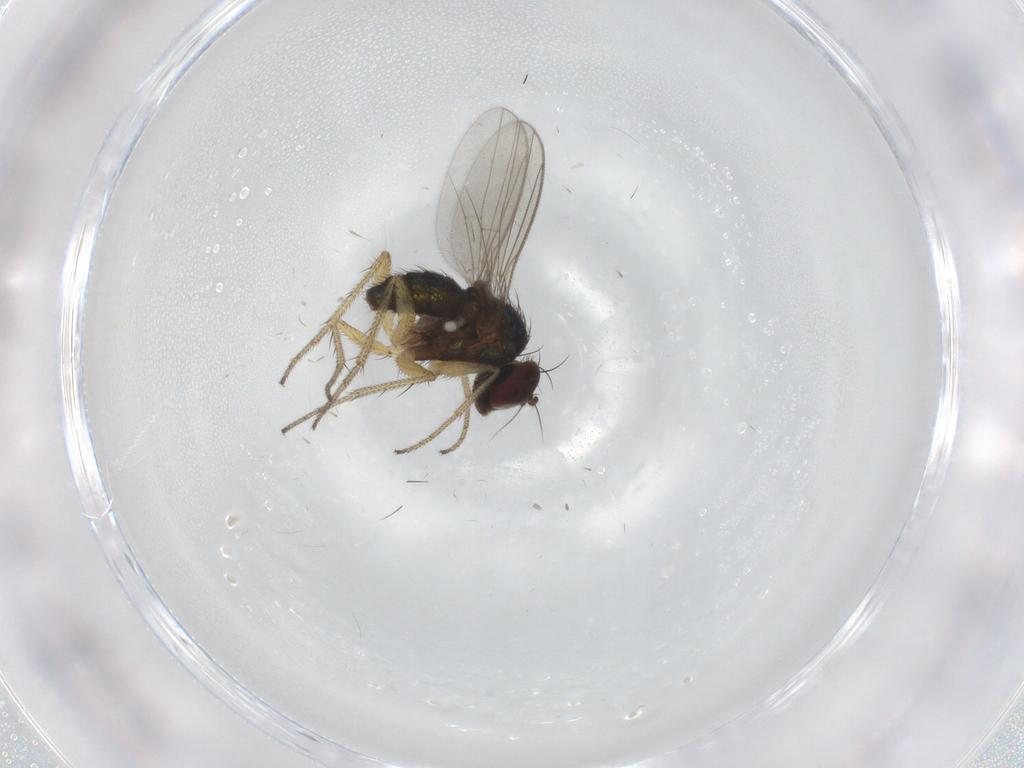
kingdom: Animalia
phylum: Arthropoda
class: Insecta
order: Diptera
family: Dolichopodidae
